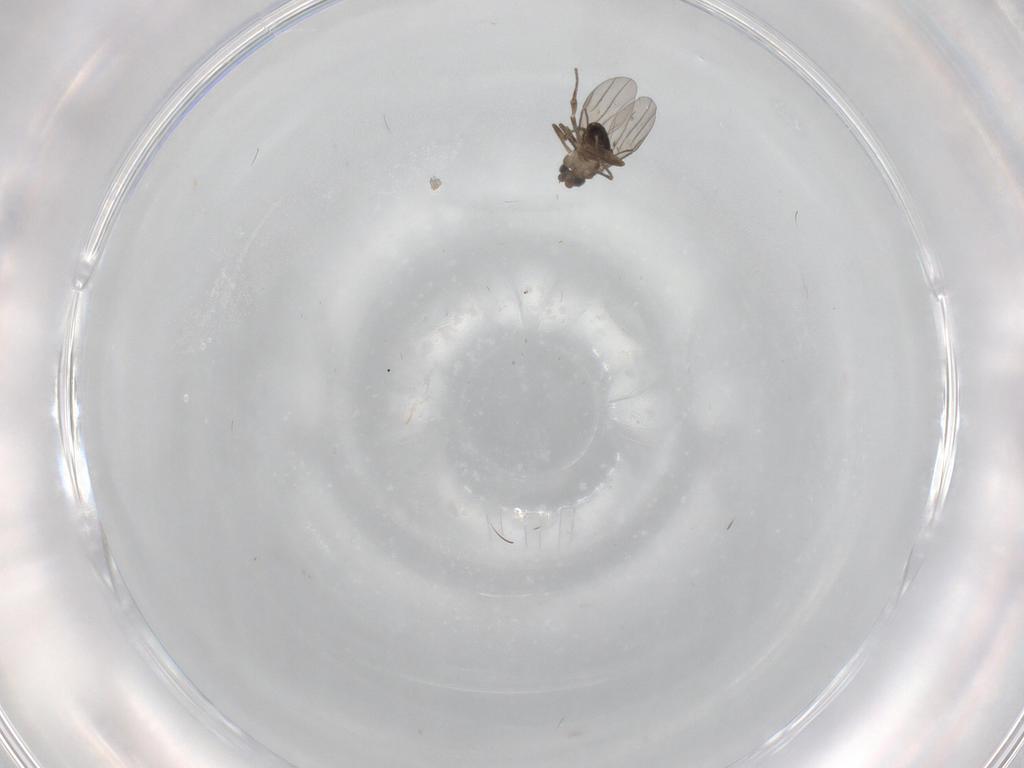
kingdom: Animalia
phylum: Arthropoda
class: Insecta
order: Diptera
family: Phoridae
